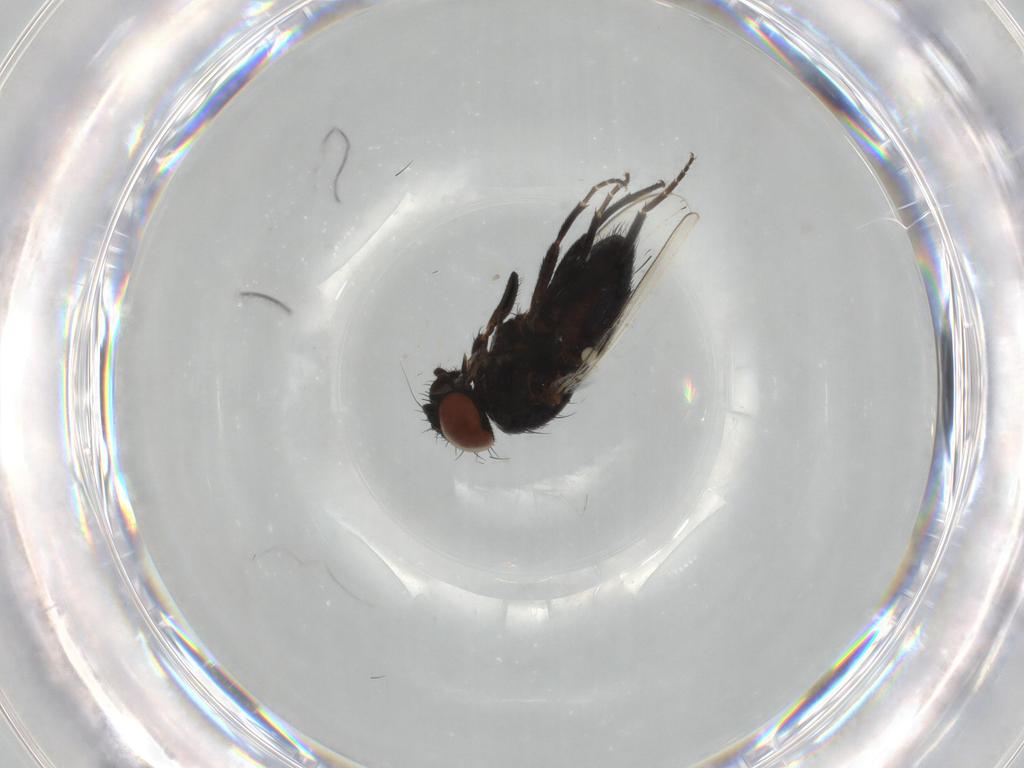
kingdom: Animalia
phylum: Arthropoda
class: Insecta
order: Diptera
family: Milichiidae
